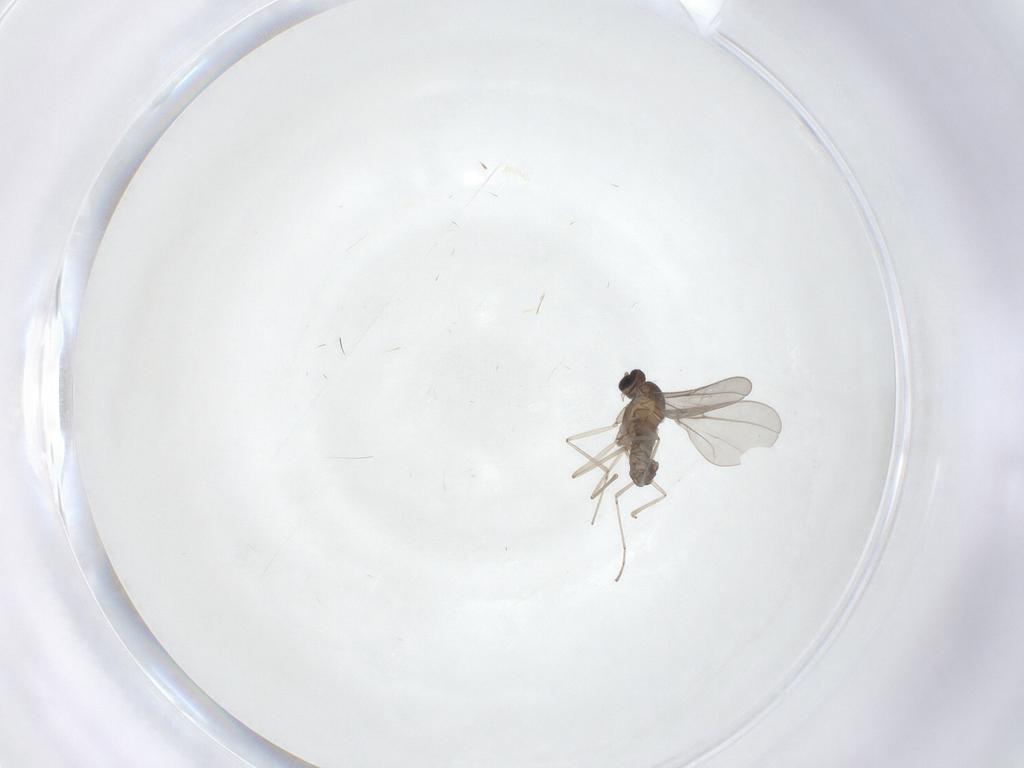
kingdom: Animalia
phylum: Arthropoda
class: Insecta
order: Diptera
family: Cecidomyiidae
